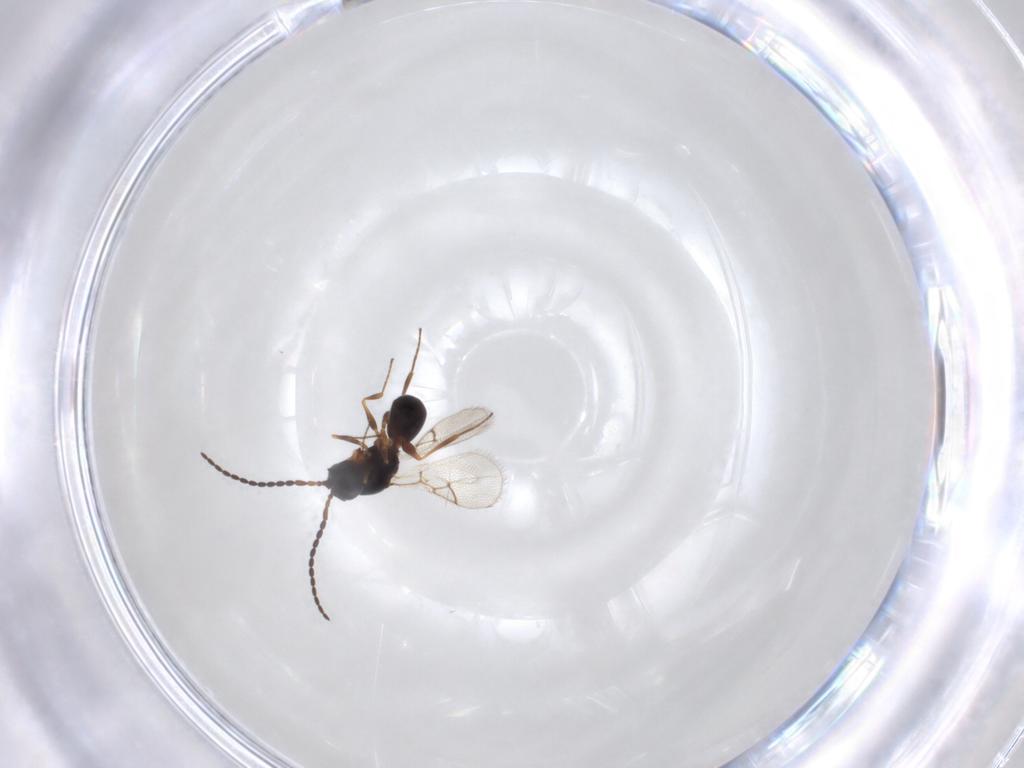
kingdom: Animalia
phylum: Arthropoda
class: Insecta
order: Hymenoptera
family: Figitidae
